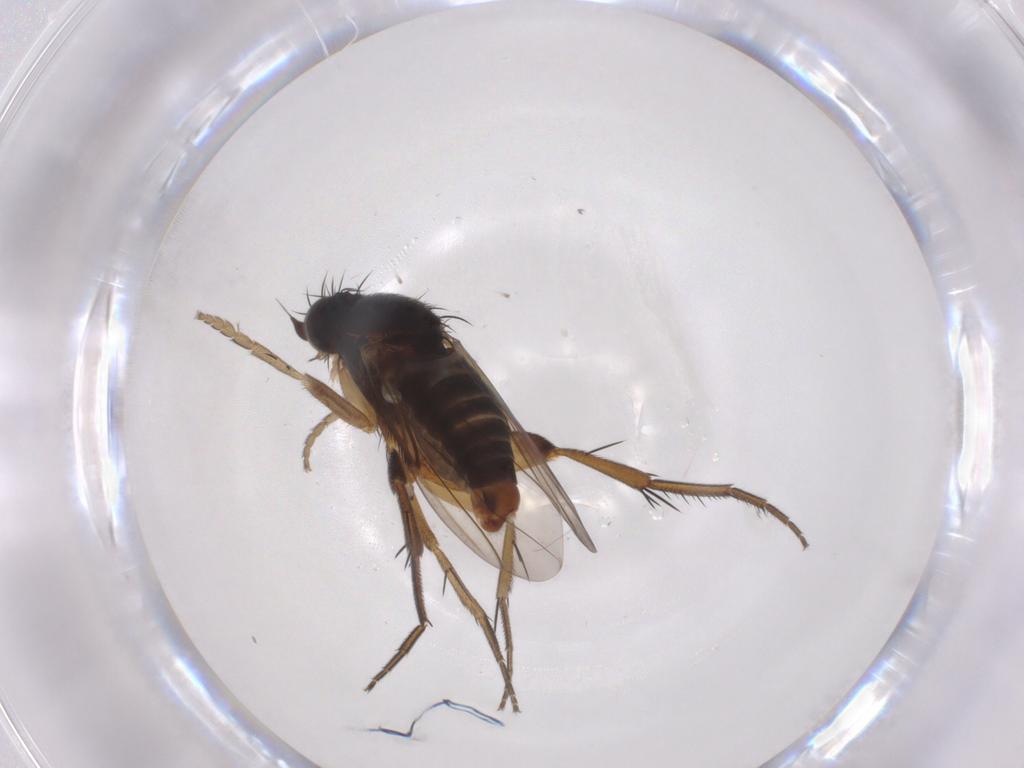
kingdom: Animalia
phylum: Arthropoda
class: Insecta
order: Diptera
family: Phoridae
